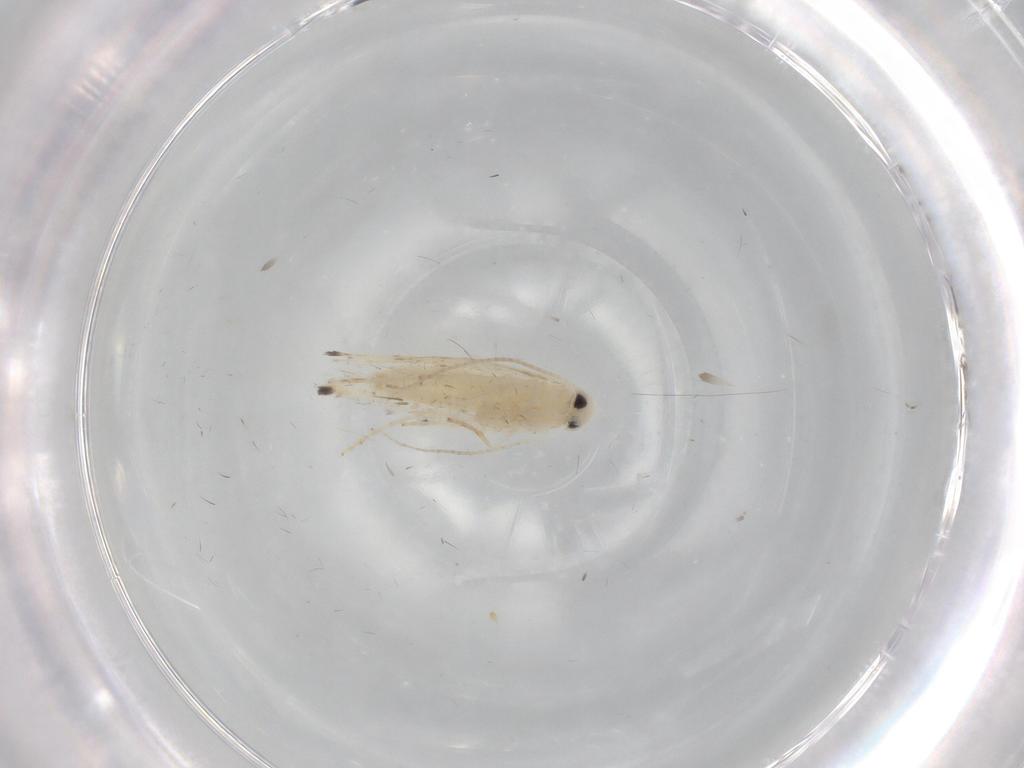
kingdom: Animalia
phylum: Arthropoda
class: Insecta
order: Lepidoptera
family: Gracillariidae
